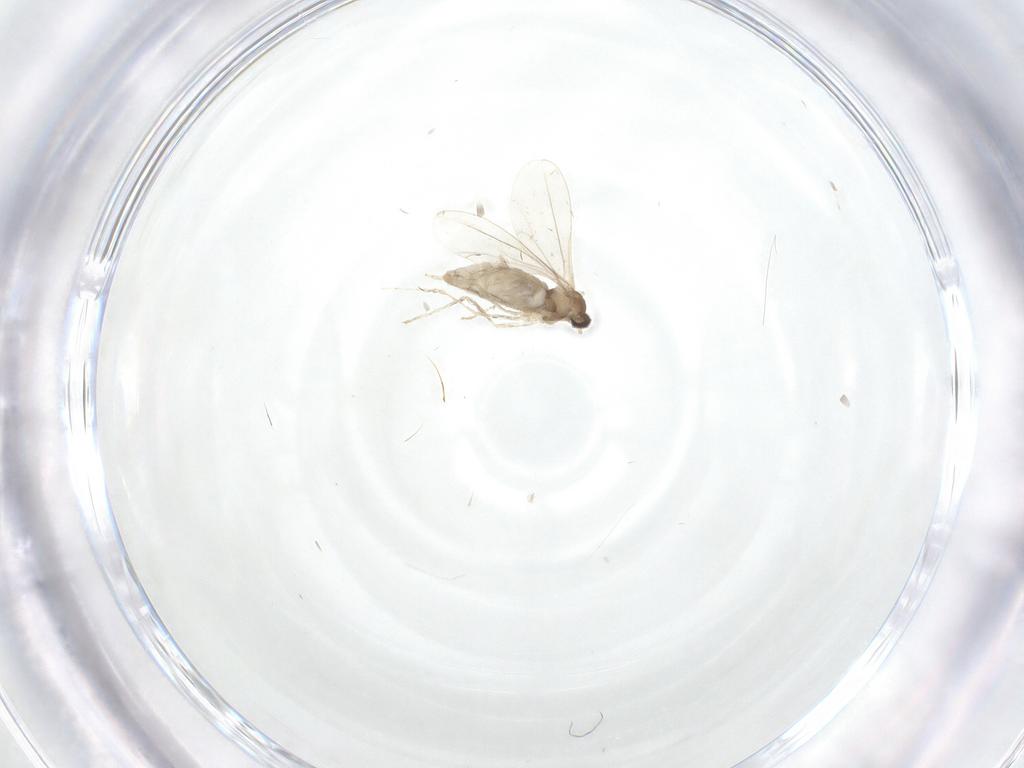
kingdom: Animalia
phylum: Arthropoda
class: Insecta
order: Diptera
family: Cecidomyiidae
